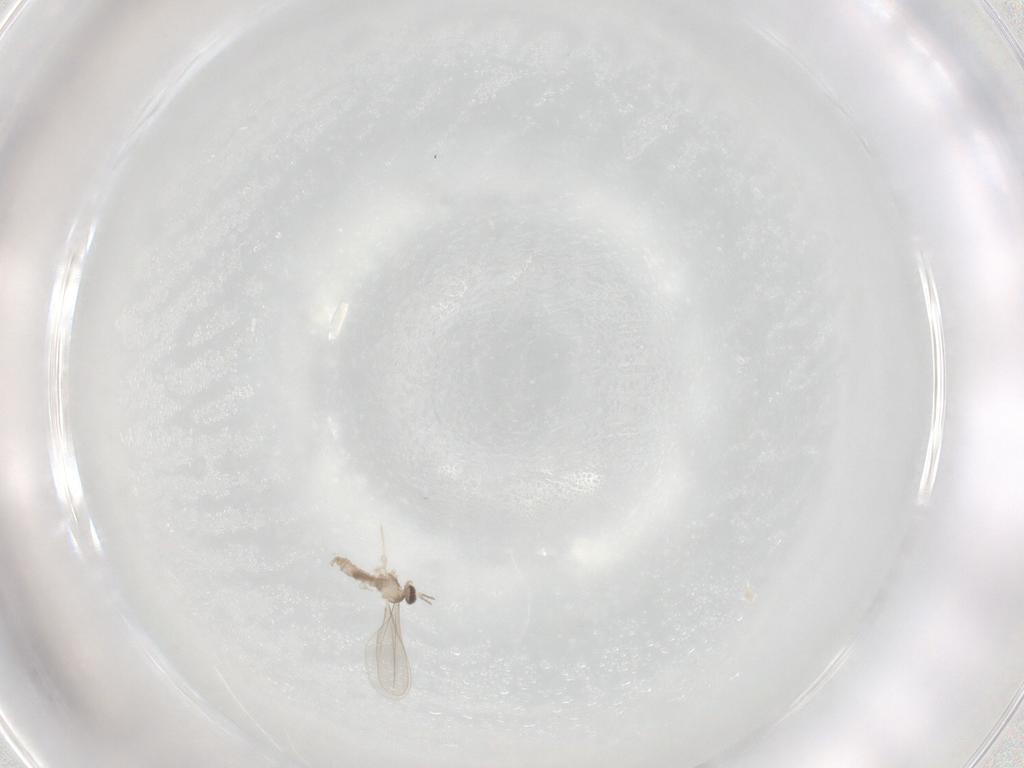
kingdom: Animalia
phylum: Arthropoda
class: Insecta
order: Diptera
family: Cecidomyiidae
